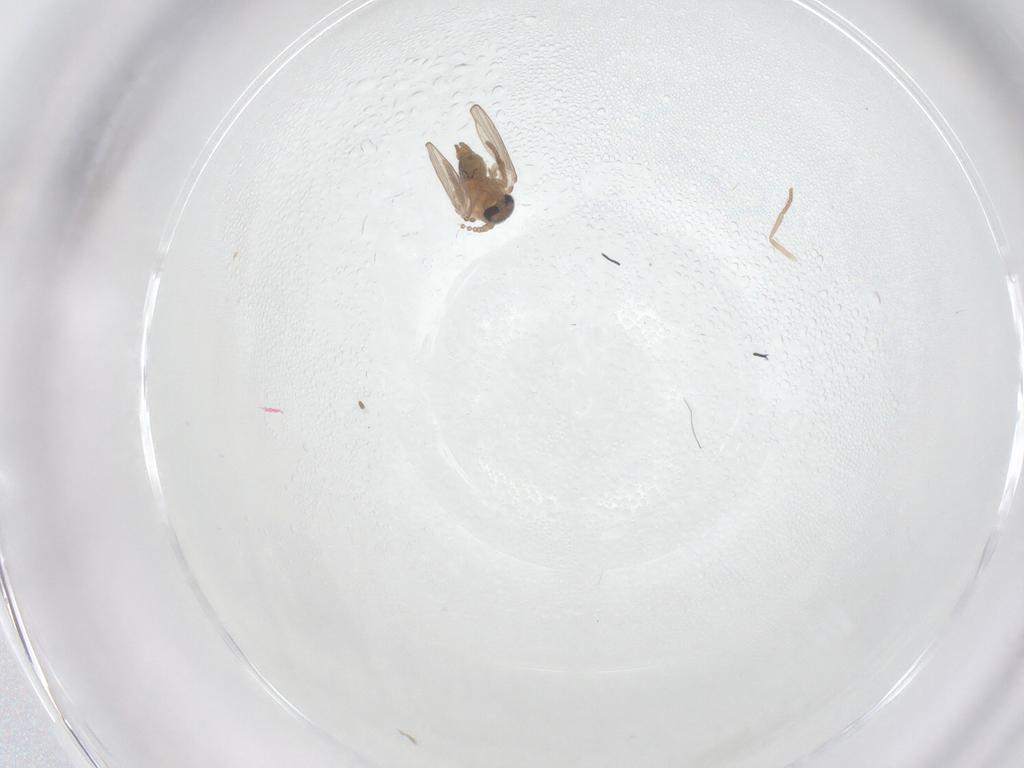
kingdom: Animalia
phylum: Arthropoda
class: Insecta
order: Diptera
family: Psychodidae
